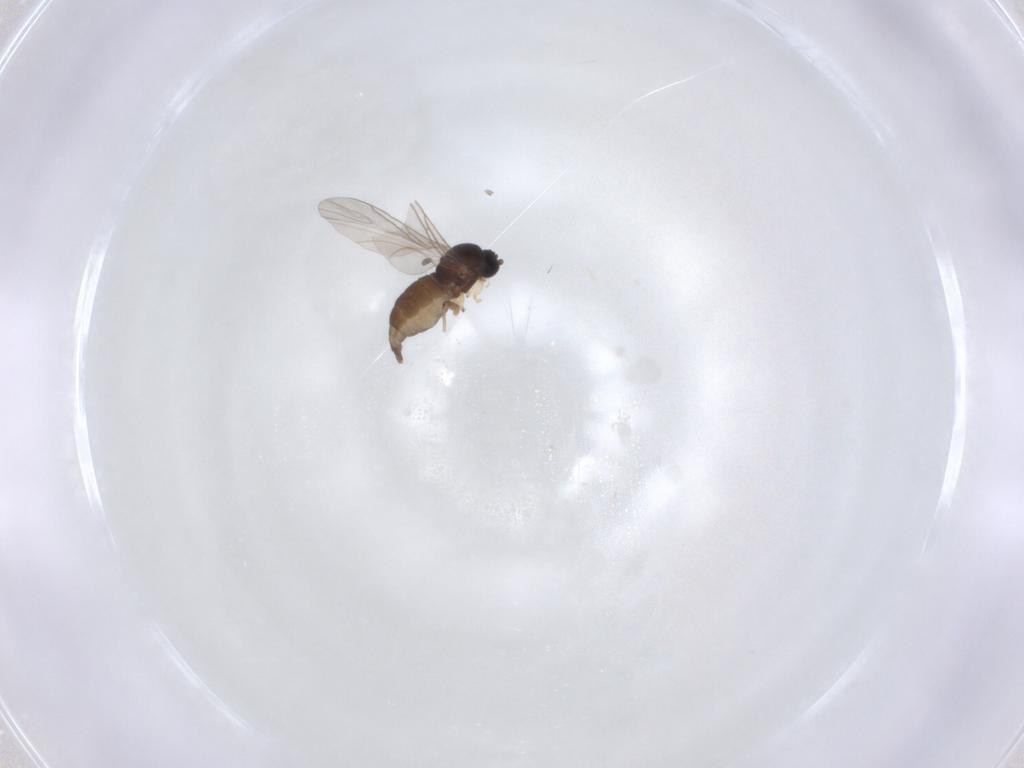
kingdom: Animalia
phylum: Arthropoda
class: Insecta
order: Diptera
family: Sciaridae
